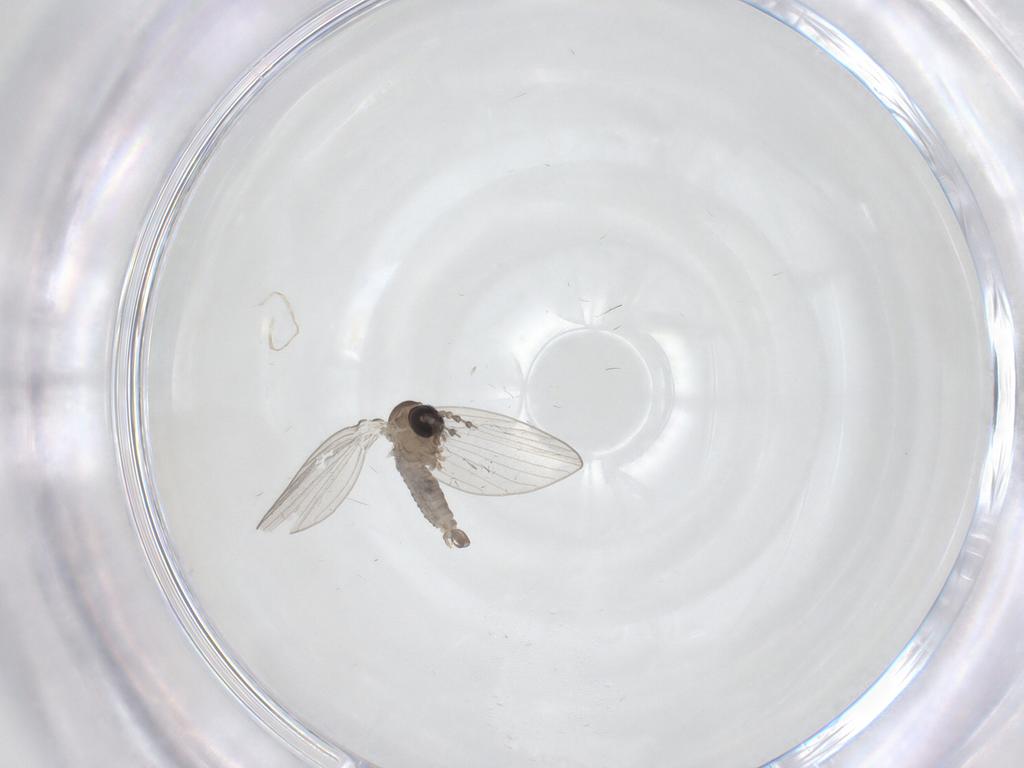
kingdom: Animalia
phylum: Arthropoda
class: Insecta
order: Diptera
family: Psychodidae
